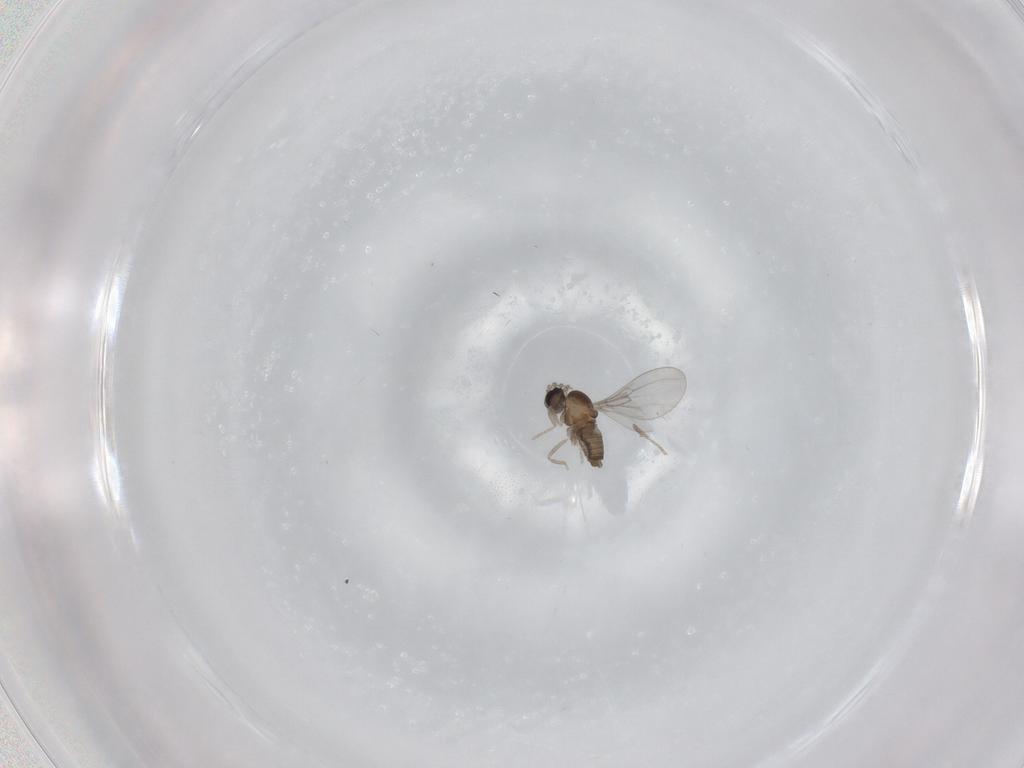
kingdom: Animalia
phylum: Arthropoda
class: Insecta
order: Diptera
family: Cecidomyiidae
